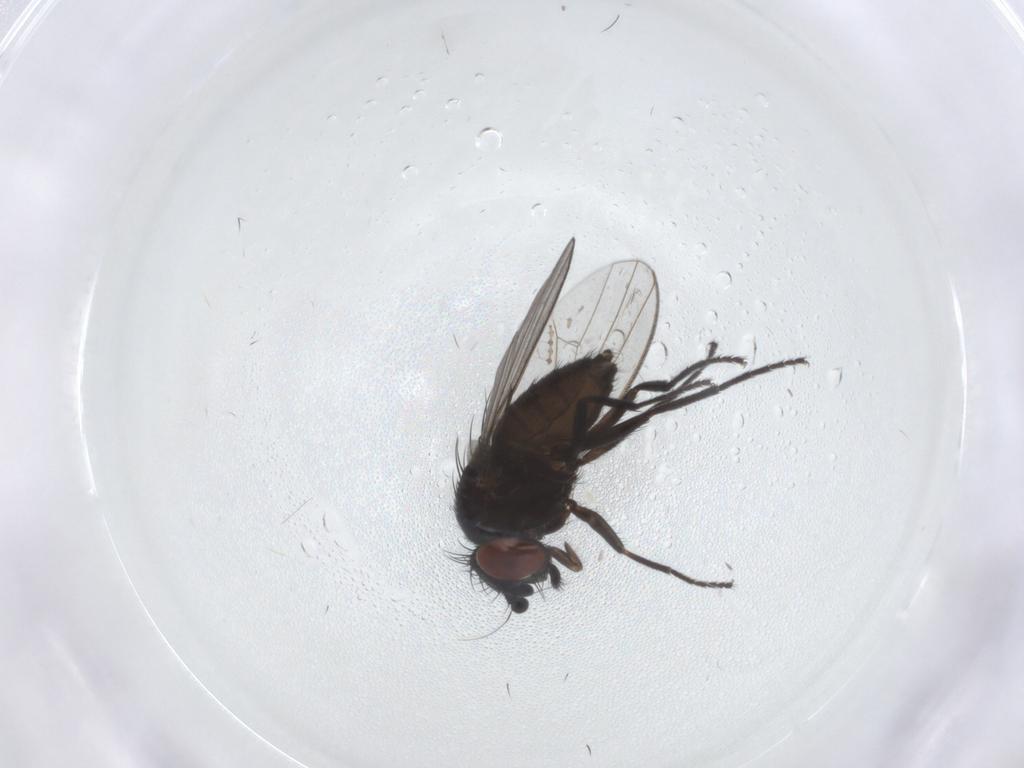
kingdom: Animalia
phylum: Arthropoda
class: Insecta
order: Diptera
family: Milichiidae
